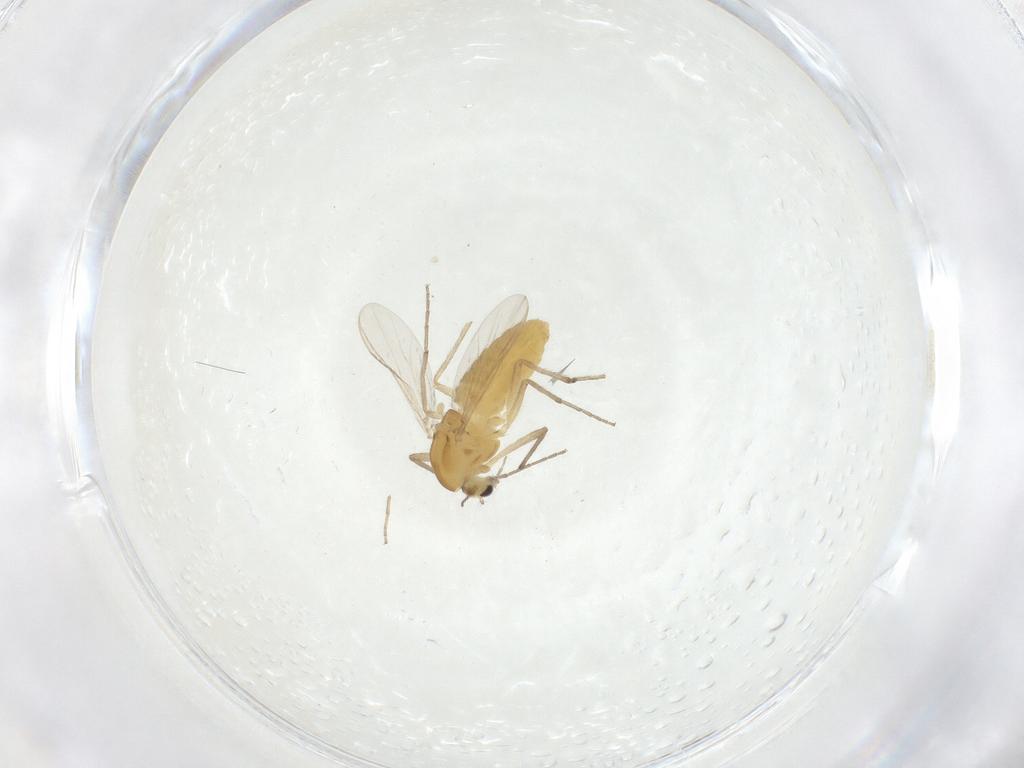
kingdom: Animalia
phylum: Arthropoda
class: Insecta
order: Diptera
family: Chironomidae
